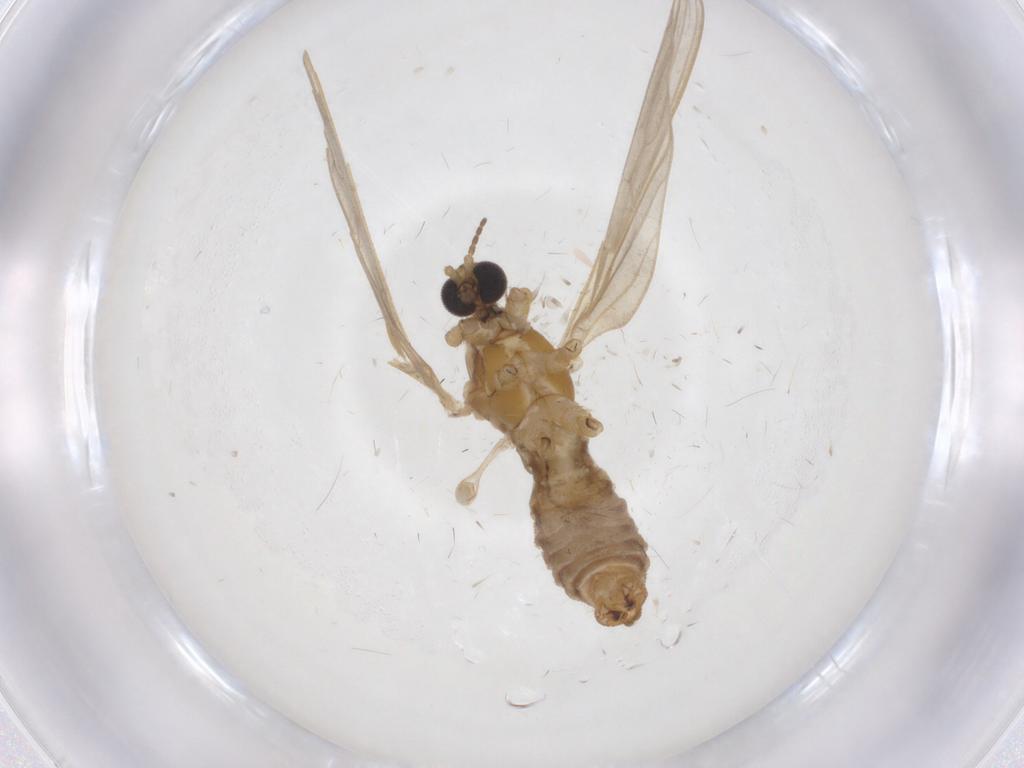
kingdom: Animalia
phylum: Arthropoda
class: Insecta
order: Diptera
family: Chironomidae
